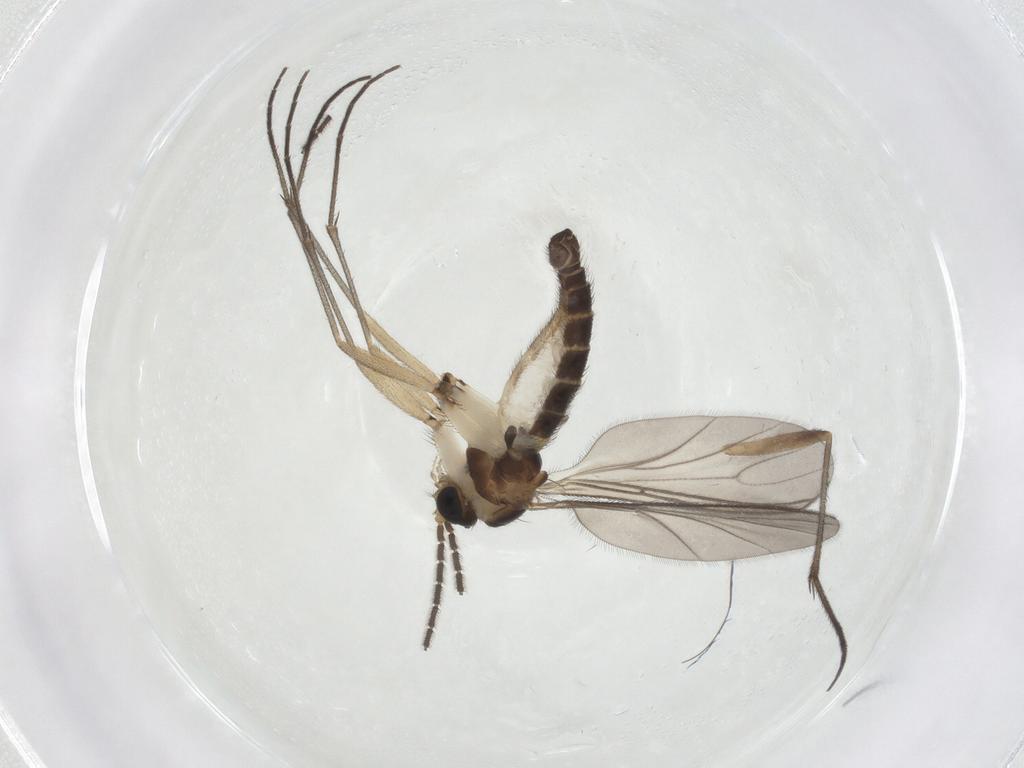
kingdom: Animalia
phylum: Arthropoda
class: Insecta
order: Diptera
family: Sciaridae
